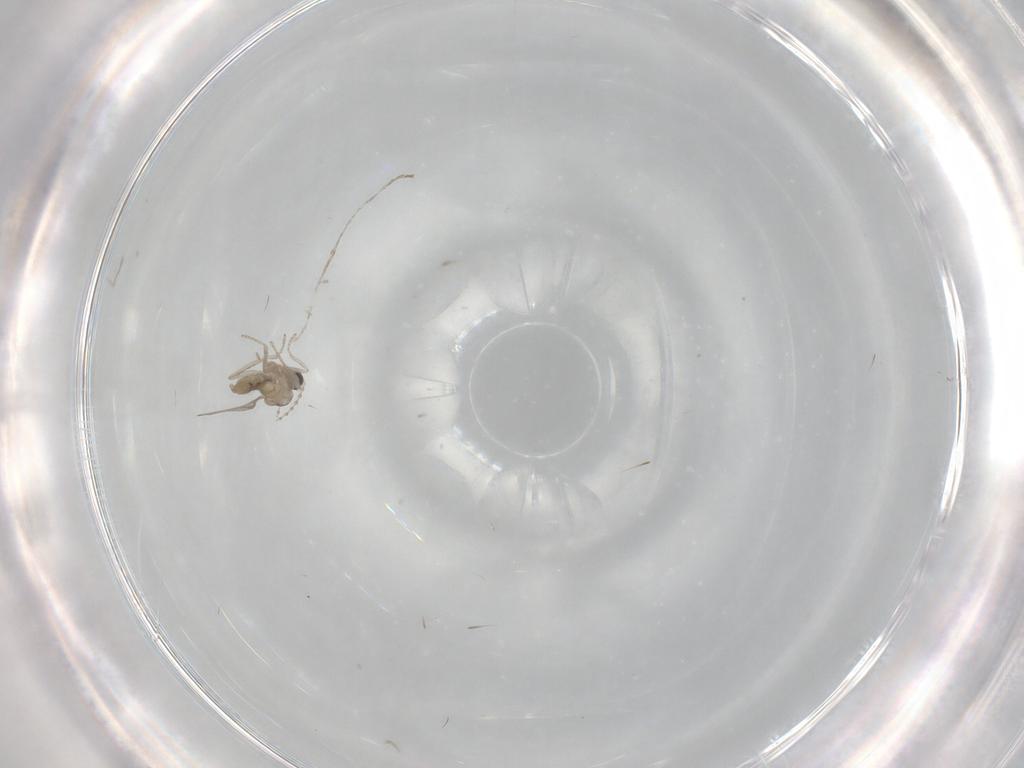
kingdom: Animalia
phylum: Arthropoda
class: Insecta
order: Diptera
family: Cecidomyiidae
